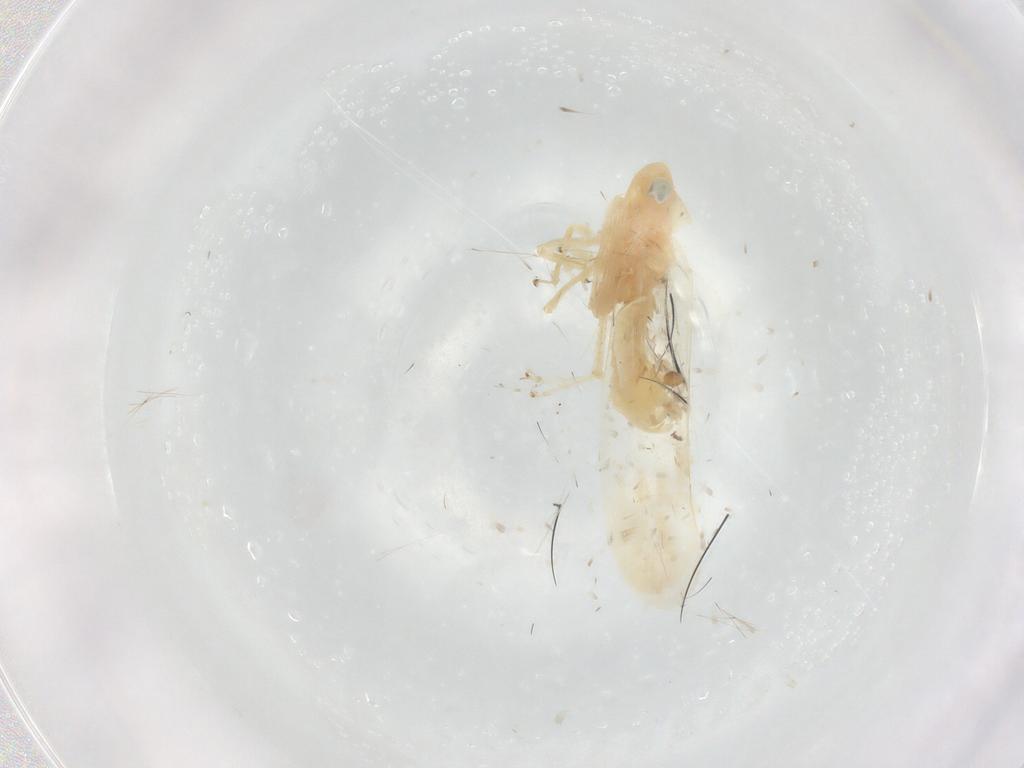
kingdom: Animalia
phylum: Arthropoda
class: Insecta
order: Hemiptera
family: Cicadellidae
